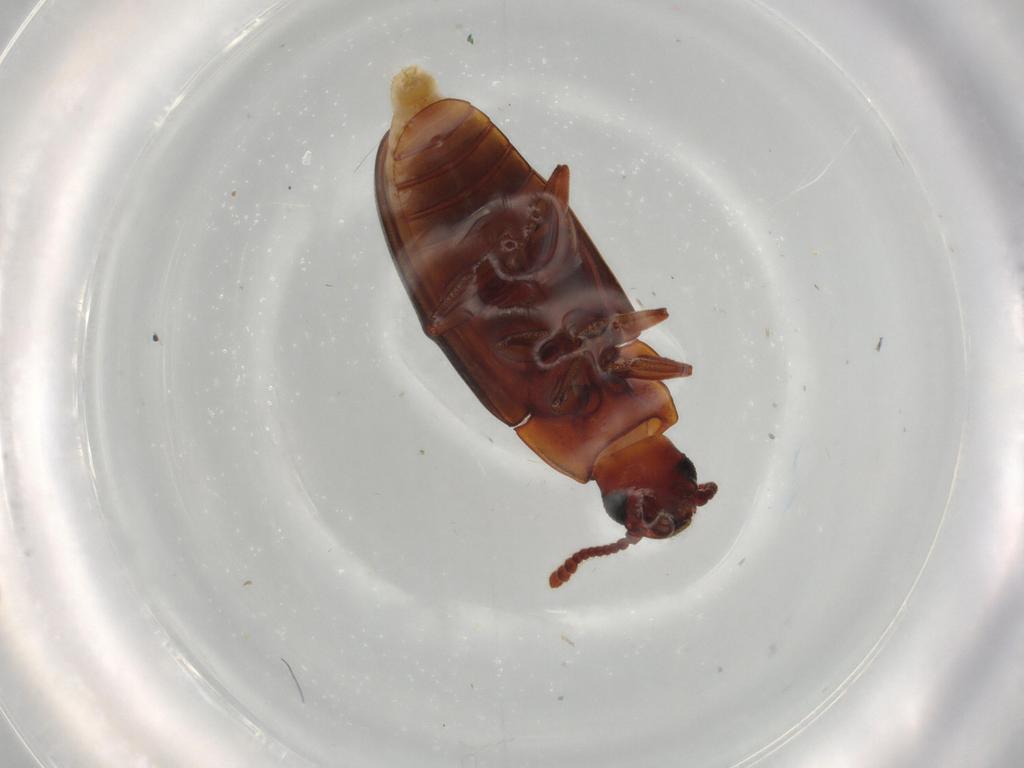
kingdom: Animalia
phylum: Arthropoda
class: Insecta
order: Coleoptera
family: Erotylidae
